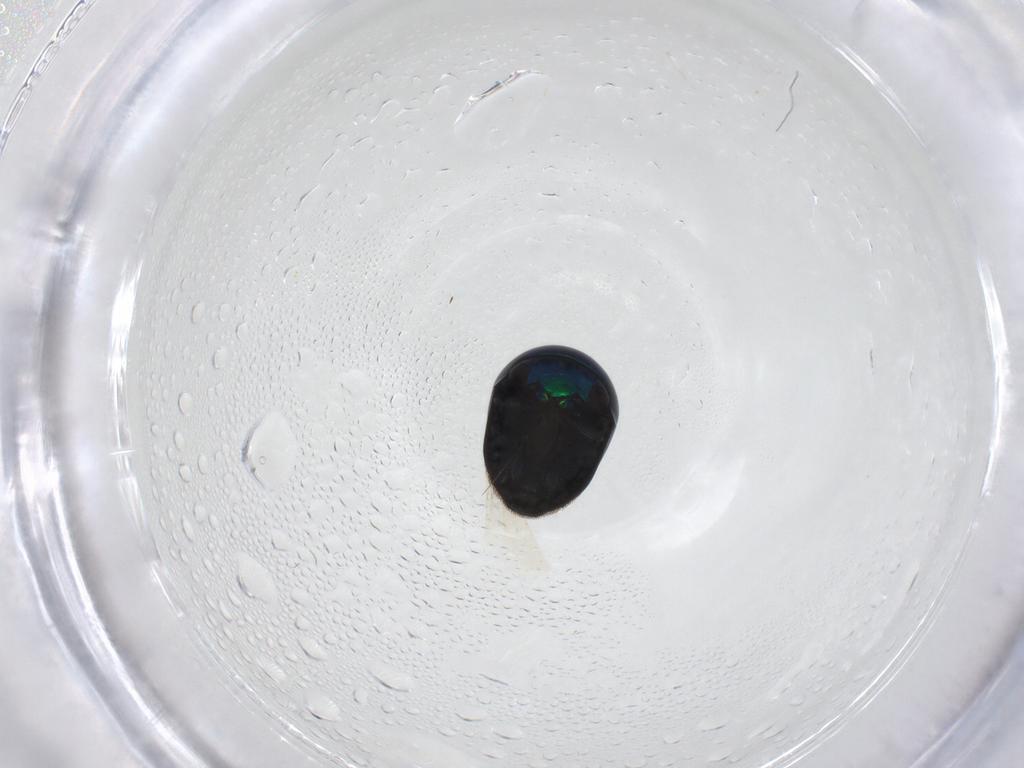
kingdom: Animalia
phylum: Arthropoda
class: Insecta
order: Coleoptera
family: Cybocephalidae
